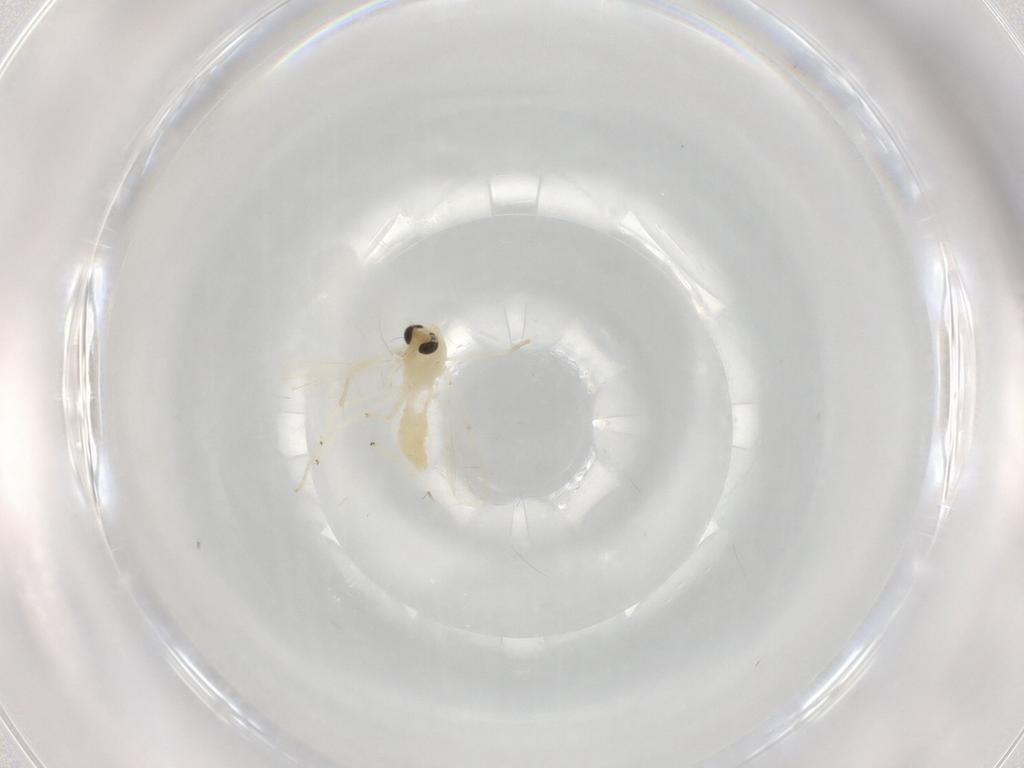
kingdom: Animalia
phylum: Arthropoda
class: Insecta
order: Diptera
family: Chironomidae
